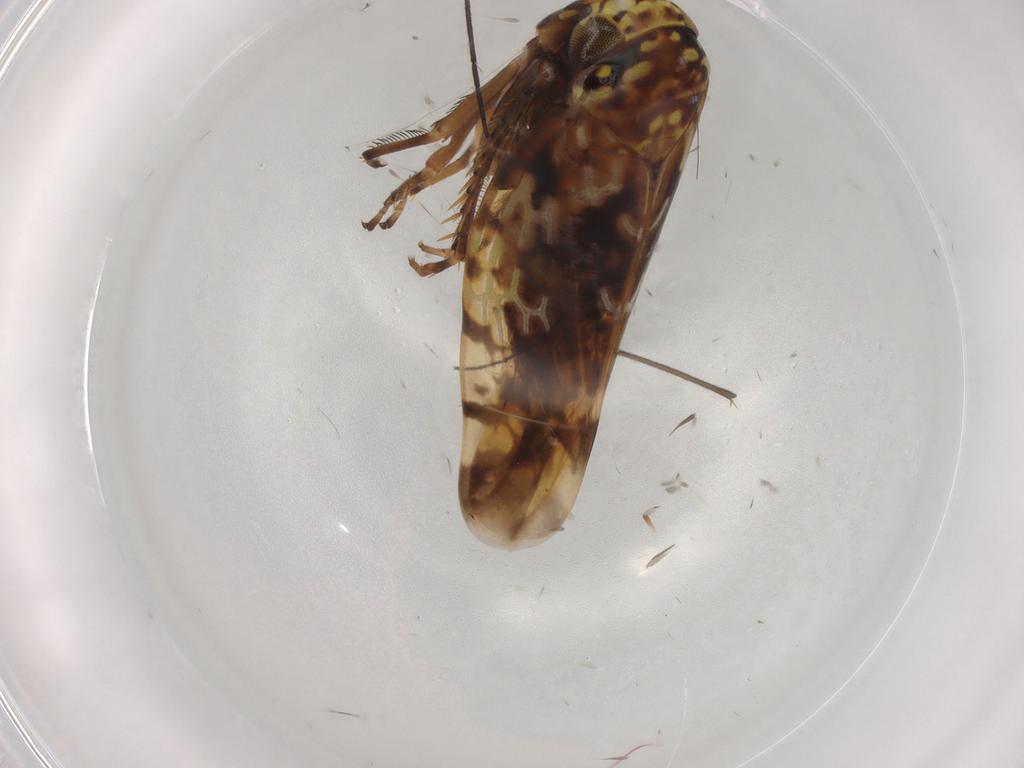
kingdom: Animalia
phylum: Arthropoda
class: Insecta
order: Hemiptera
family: Cicadellidae
